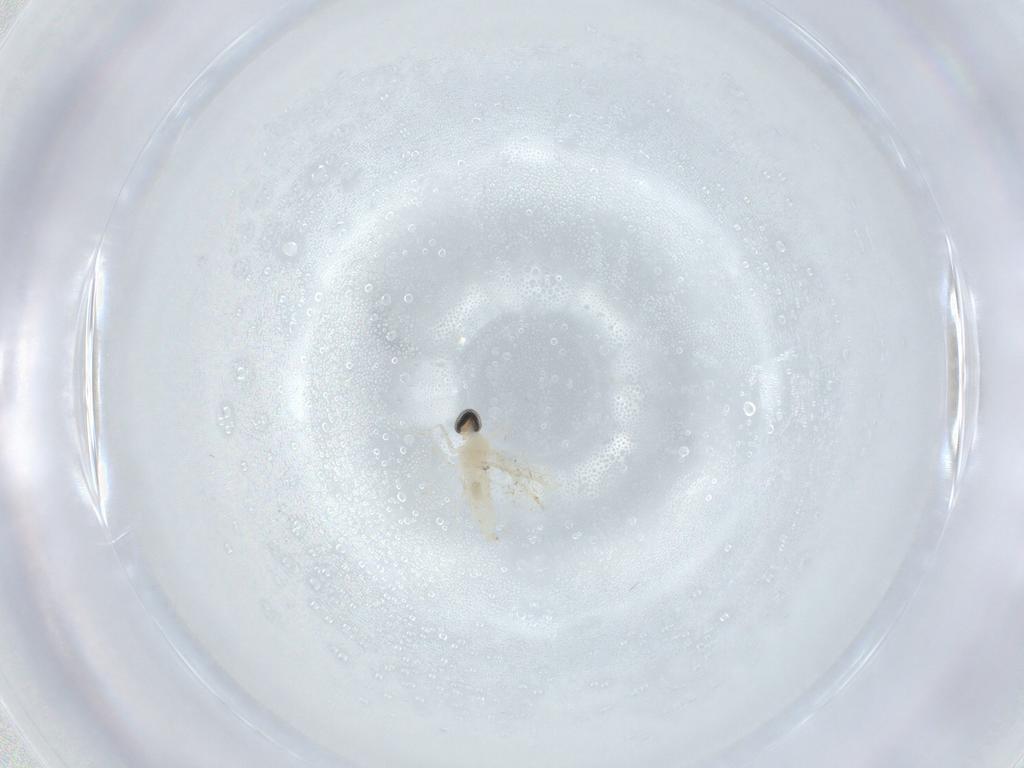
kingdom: Animalia
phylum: Arthropoda
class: Insecta
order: Diptera
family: Cecidomyiidae
